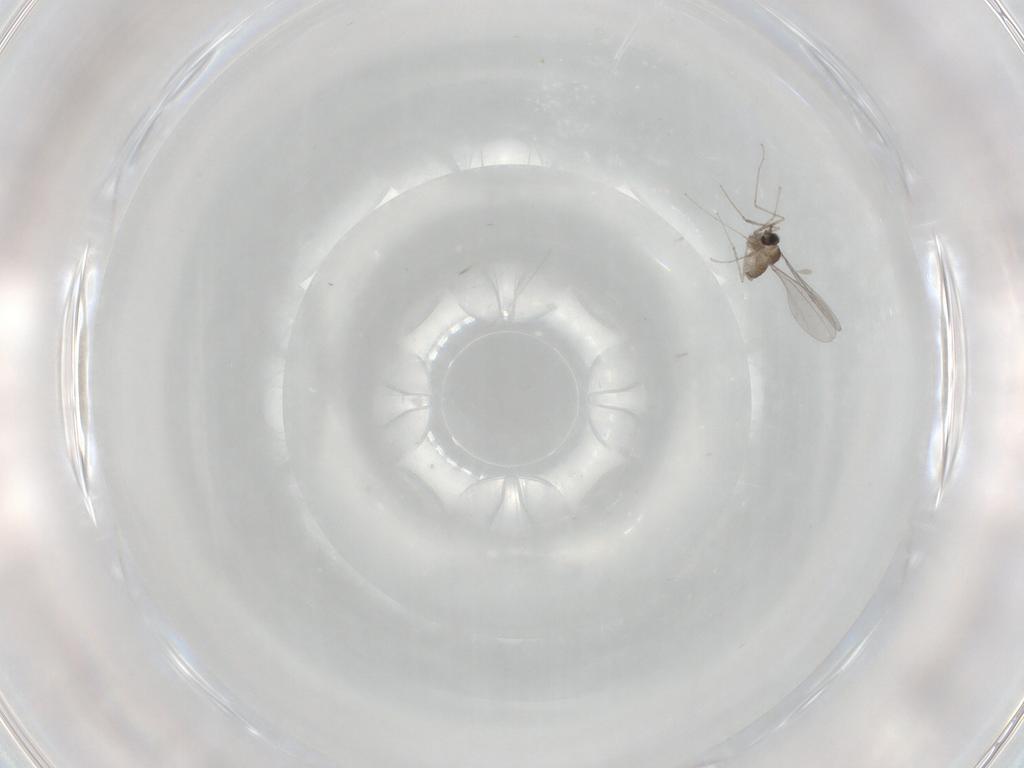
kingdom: Animalia
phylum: Arthropoda
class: Insecta
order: Diptera
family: Cecidomyiidae
